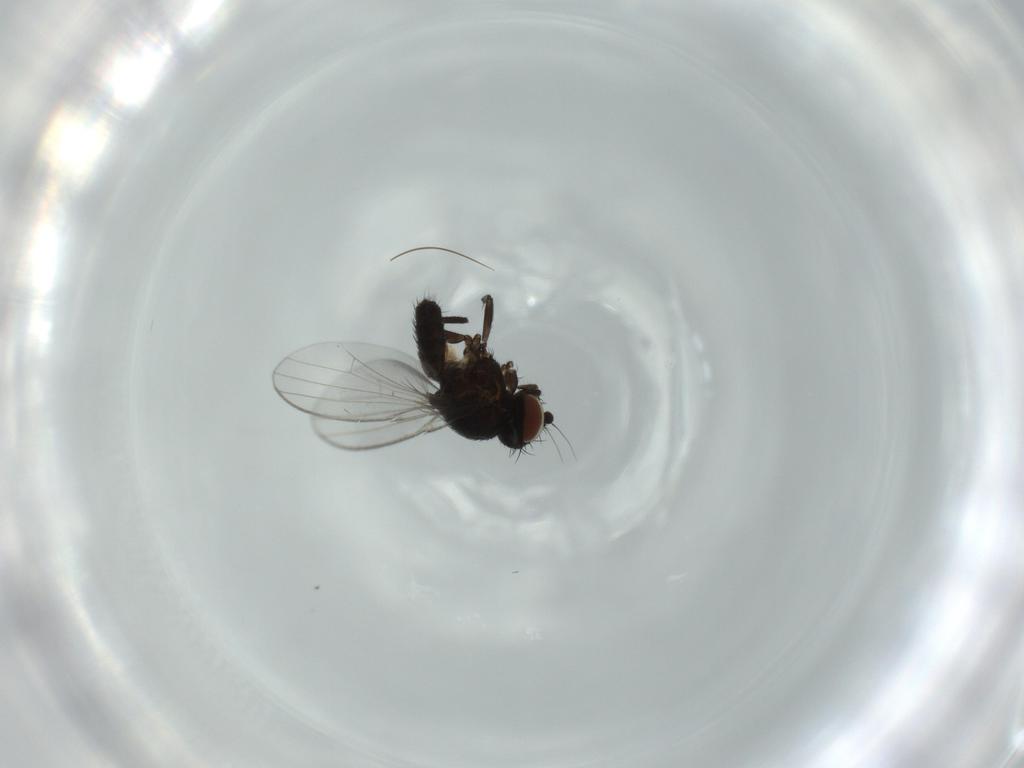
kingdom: Animalia
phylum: Arthropoda
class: Insecta
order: Diptera
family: Milichiidae
